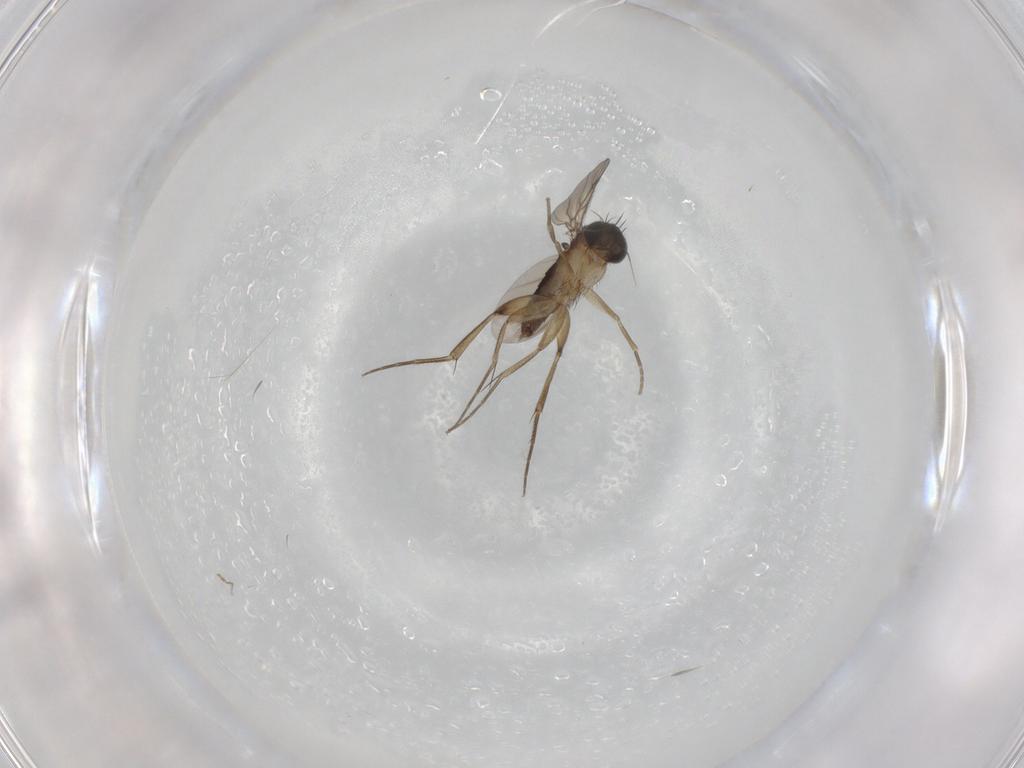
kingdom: Animalia
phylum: Arthropoda
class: Insecta
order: Diptera
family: Phoridae
